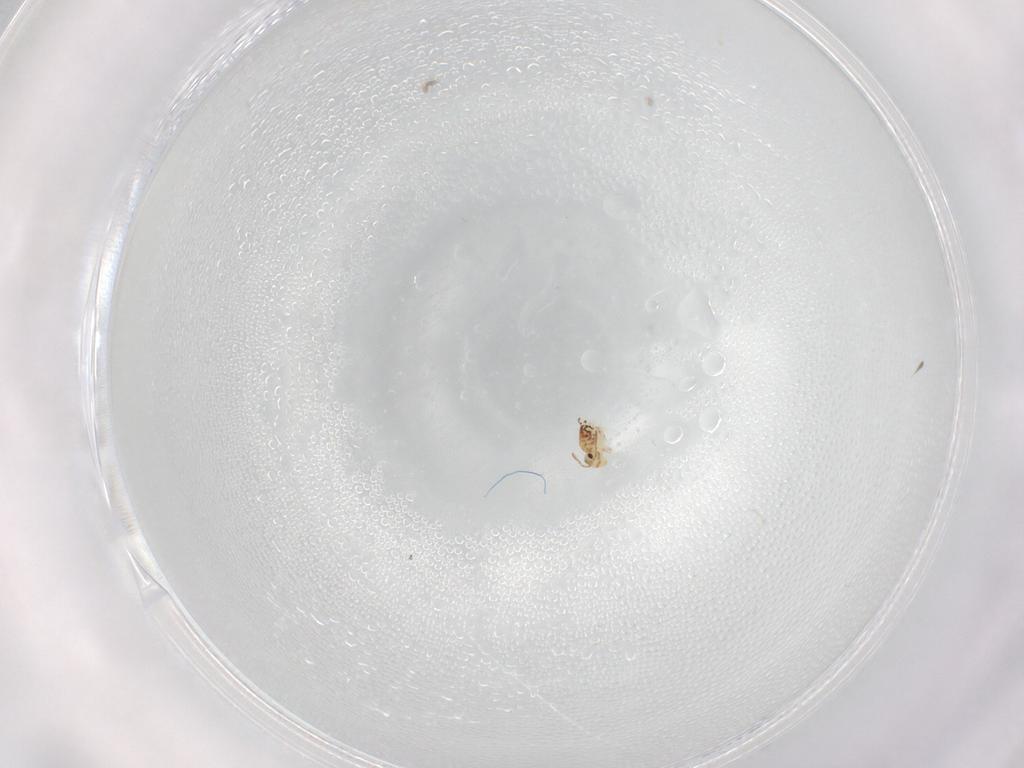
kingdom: Animalia
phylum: Arthropoda
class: Collembola
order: Symphypleona
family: Bourletiellidae
